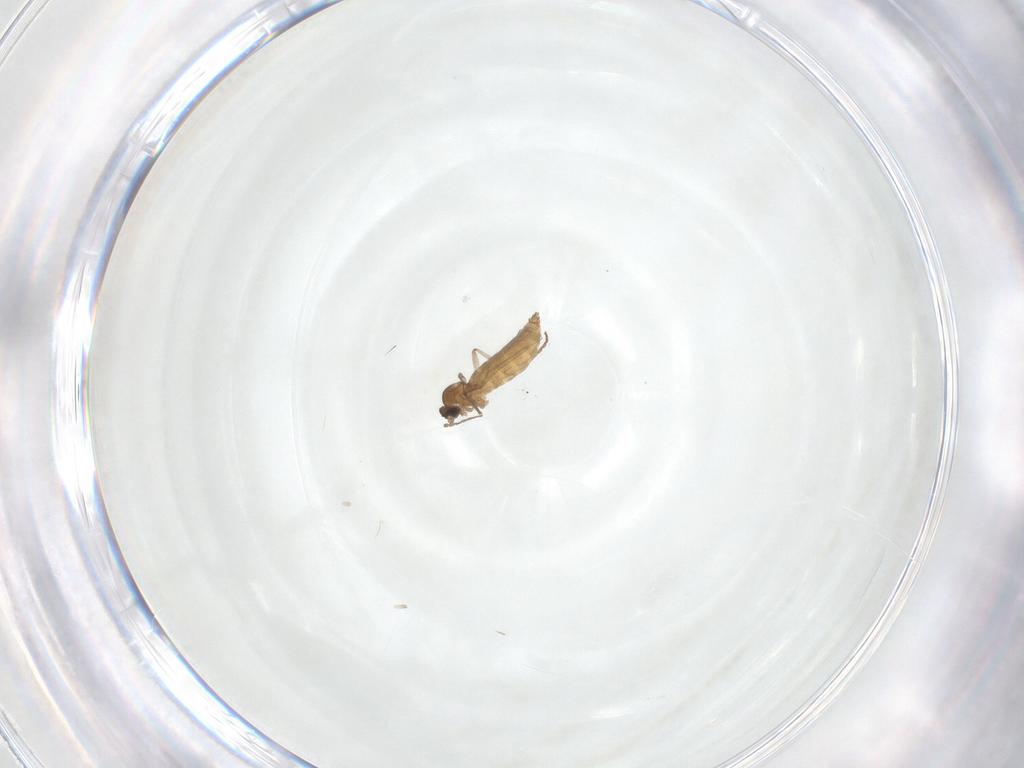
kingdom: Animalia
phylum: Arthropoda
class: Insecta
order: Diptera
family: Cecidomyiidae
